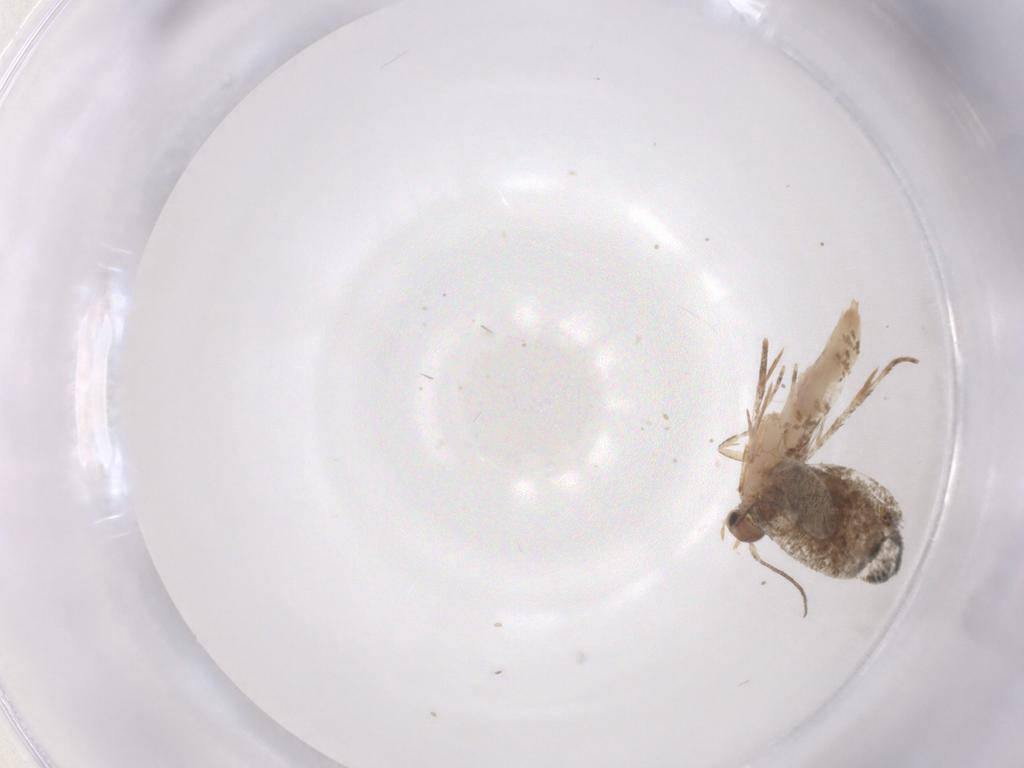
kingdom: Animalia
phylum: Arthropoda
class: Insecta
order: Lepidoptera
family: Tineidae
